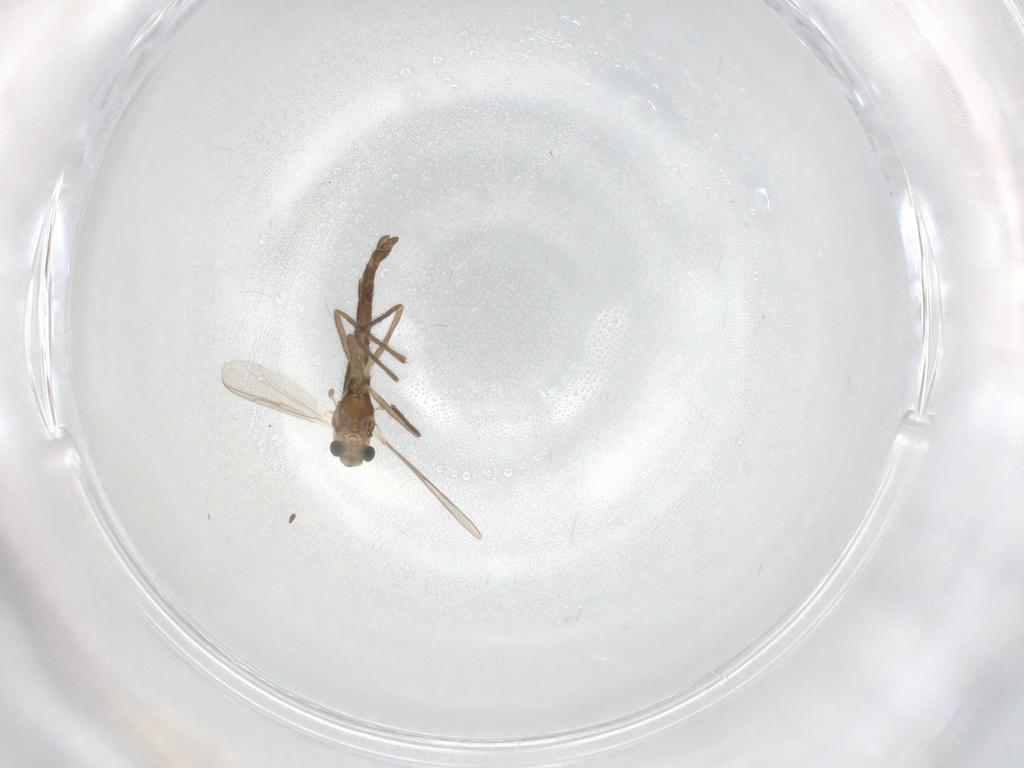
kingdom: Animalia
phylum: Arthropoda
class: Insecta
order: Diptera
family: Chironomidae
